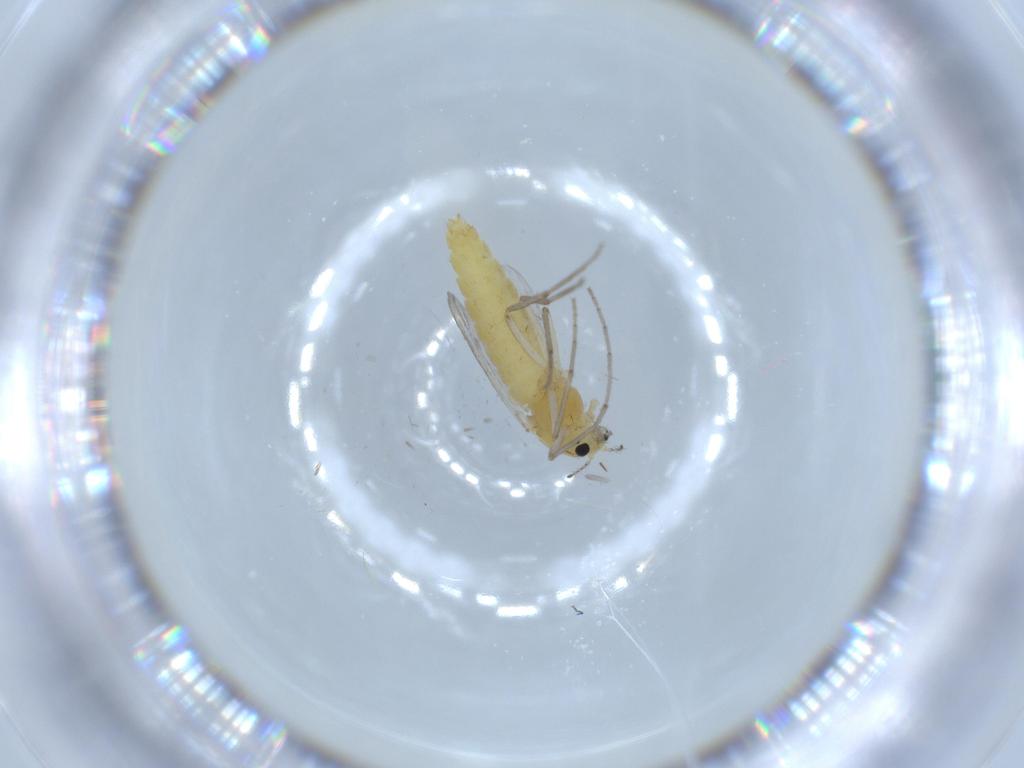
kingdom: Animalia
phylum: Arthropoda
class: Insecta
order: Diptera
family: Chironomidae
